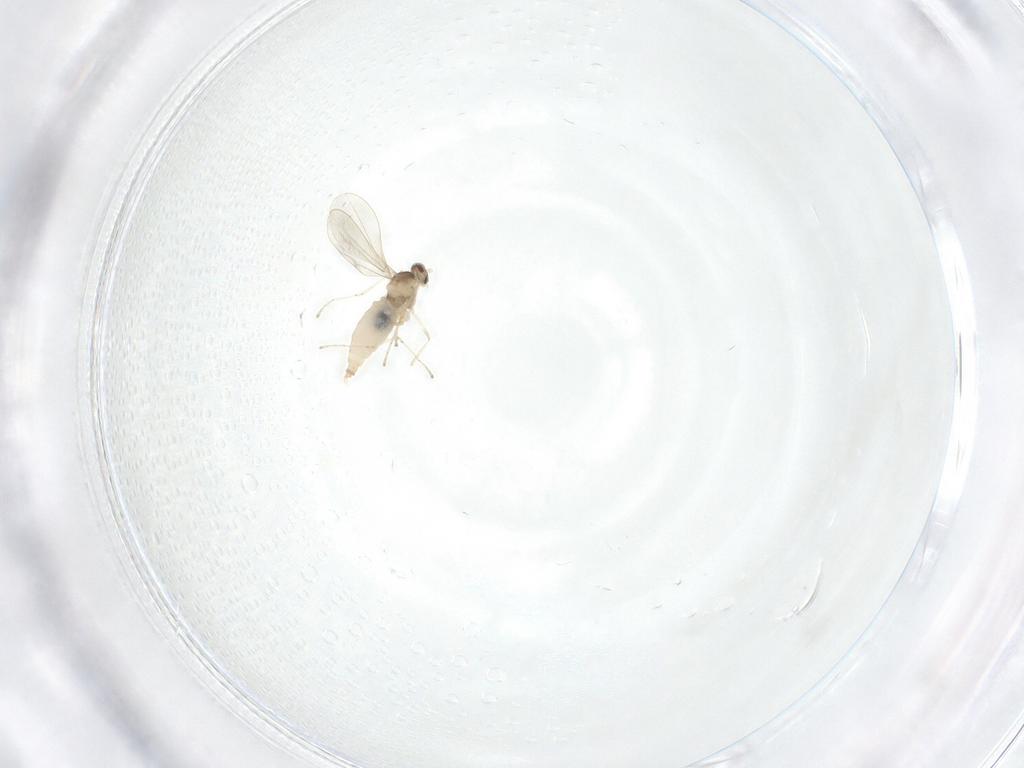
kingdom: Animalia
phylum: Arthropoda
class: Insecta
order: Diptera
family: Cecidomyiidae
